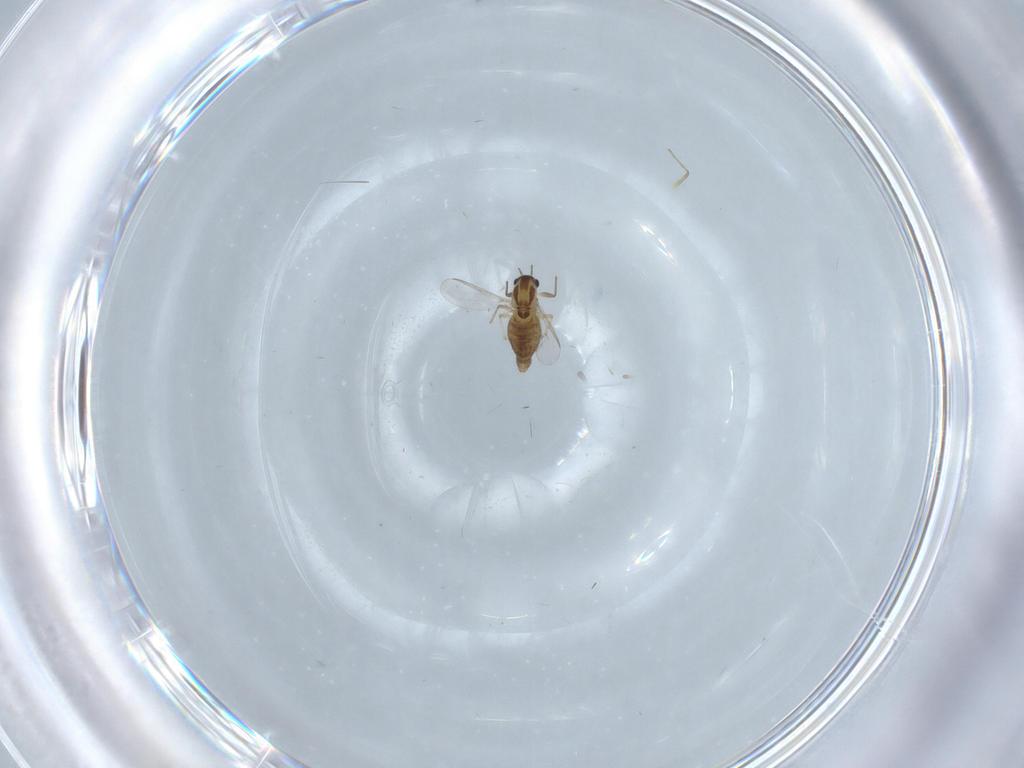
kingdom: Animalia
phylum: Arthropoda
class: Insecta
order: Diptera
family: Chironomidae
